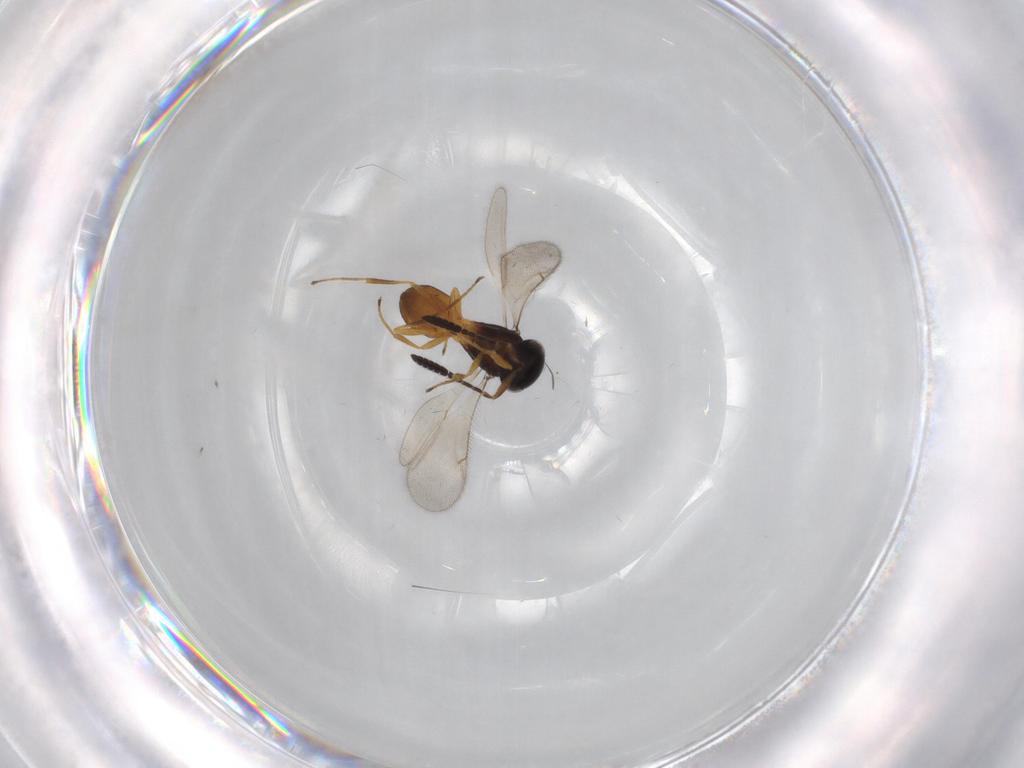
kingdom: Animalia
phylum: Arthropoda
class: Insecta
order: Hymenoptera
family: Scelionidae
